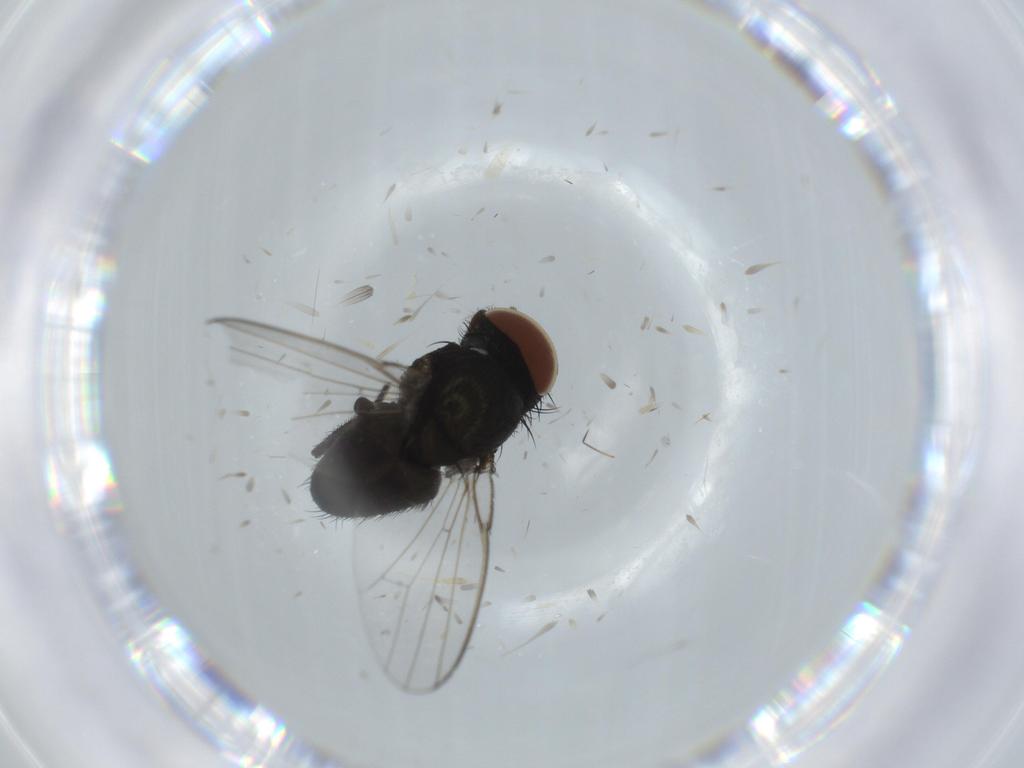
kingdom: Animalia
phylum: Arthropoda
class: Insecta
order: Diptera
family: Milichiidae
